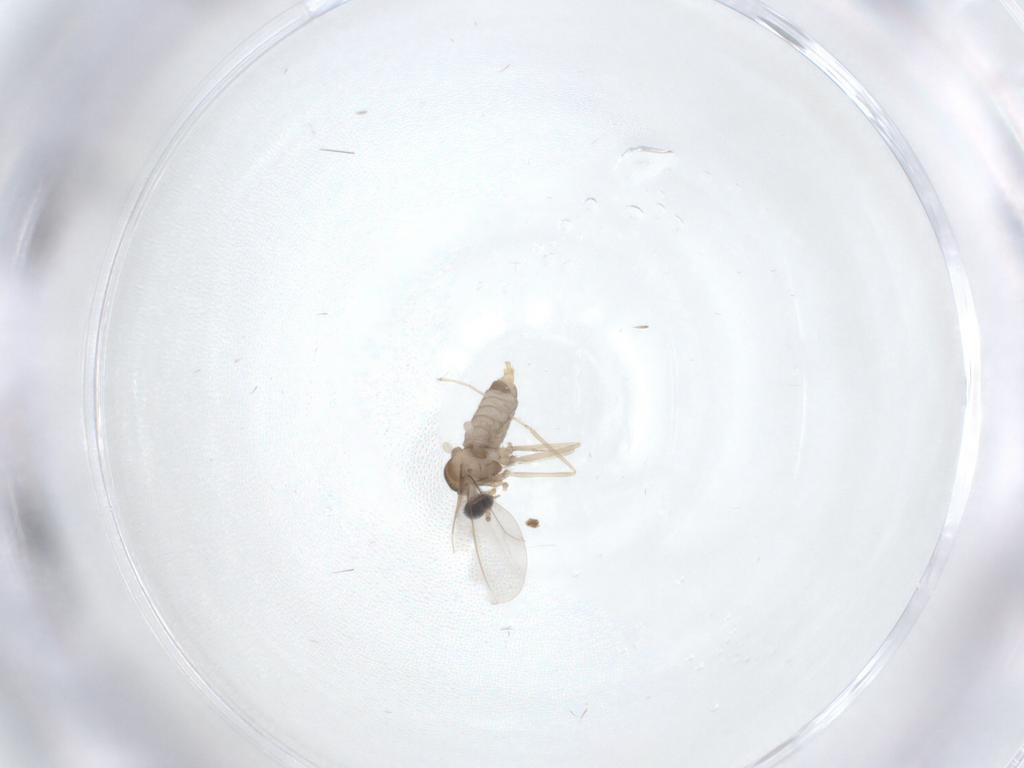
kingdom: Animalia
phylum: Arthropoda
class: Insecta
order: Diptera
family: Cecidomyiidae
